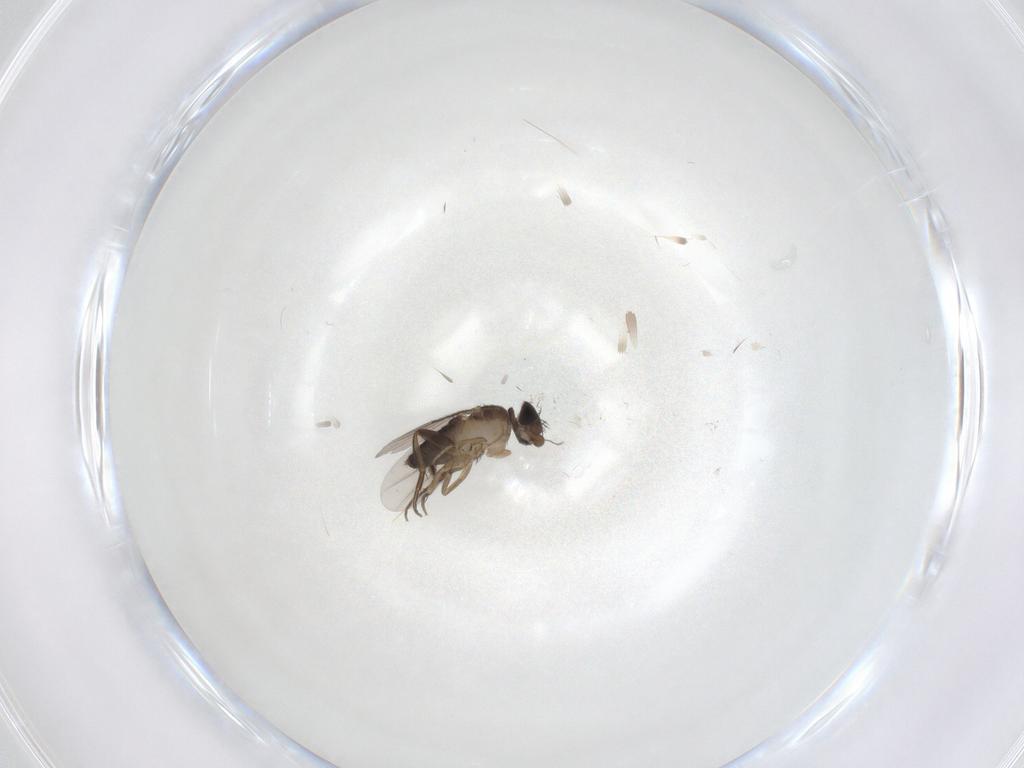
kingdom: Animalia
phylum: Arthropoda
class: Insecta
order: Diptera
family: Phoridae
